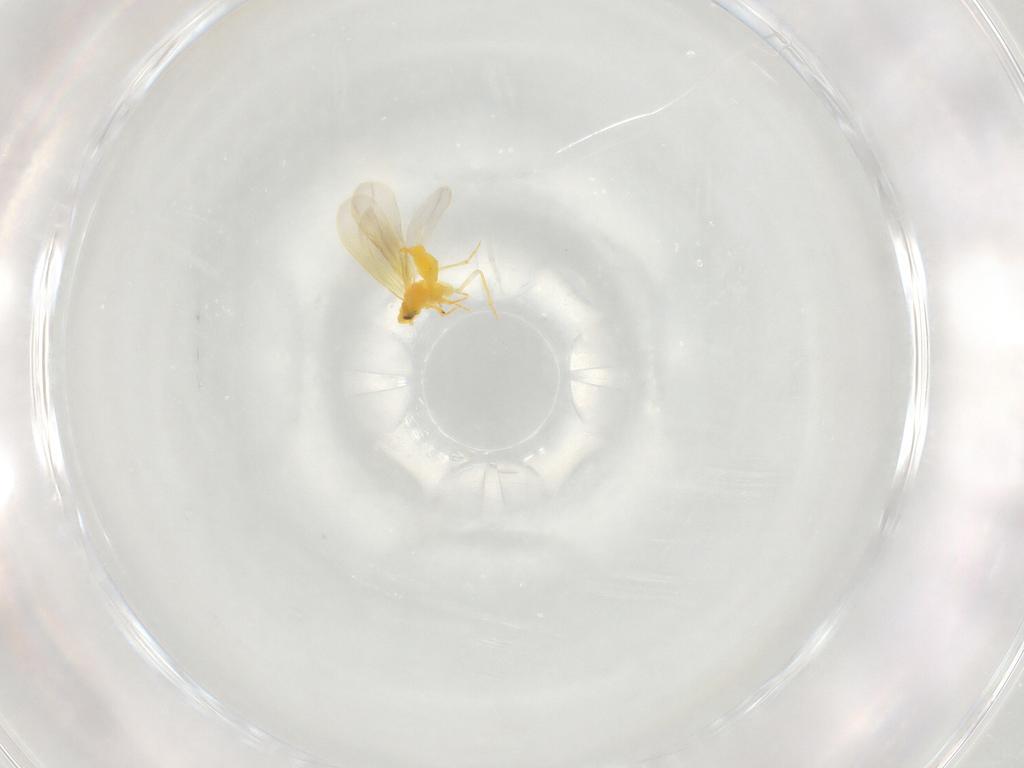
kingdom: Animalia
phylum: Arthropoda
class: Insecta
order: Hemiptera
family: Aleyrodidae
